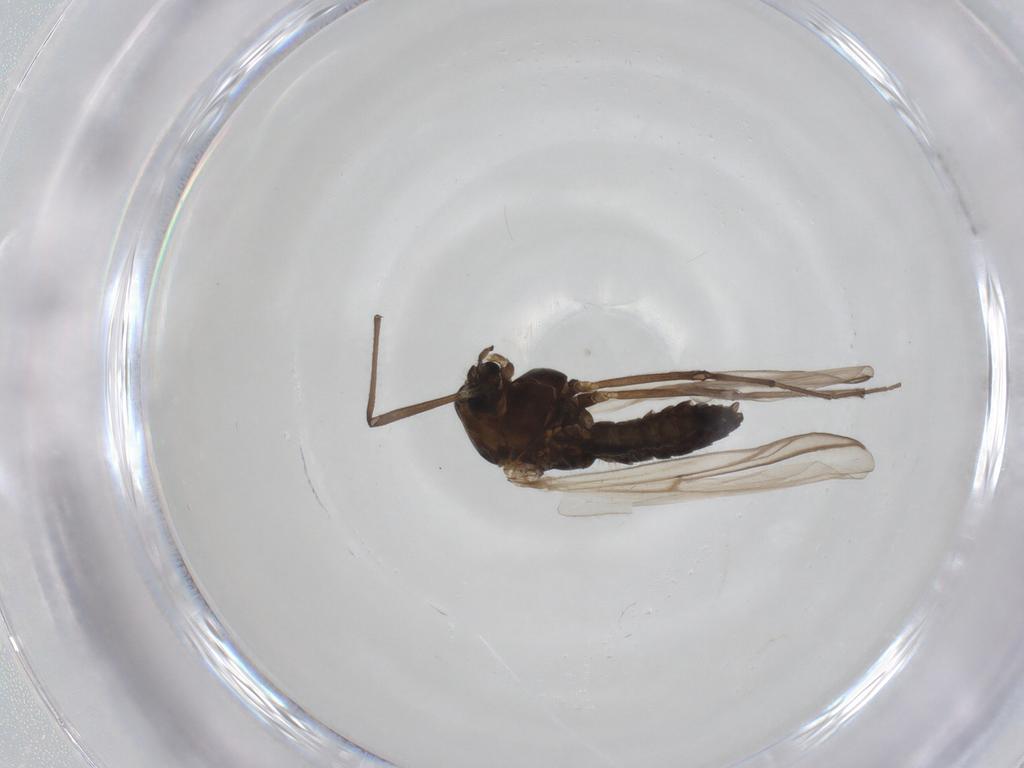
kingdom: Animalia
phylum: Arthropoda
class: Insecta
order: Diptera
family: Chironomidae
